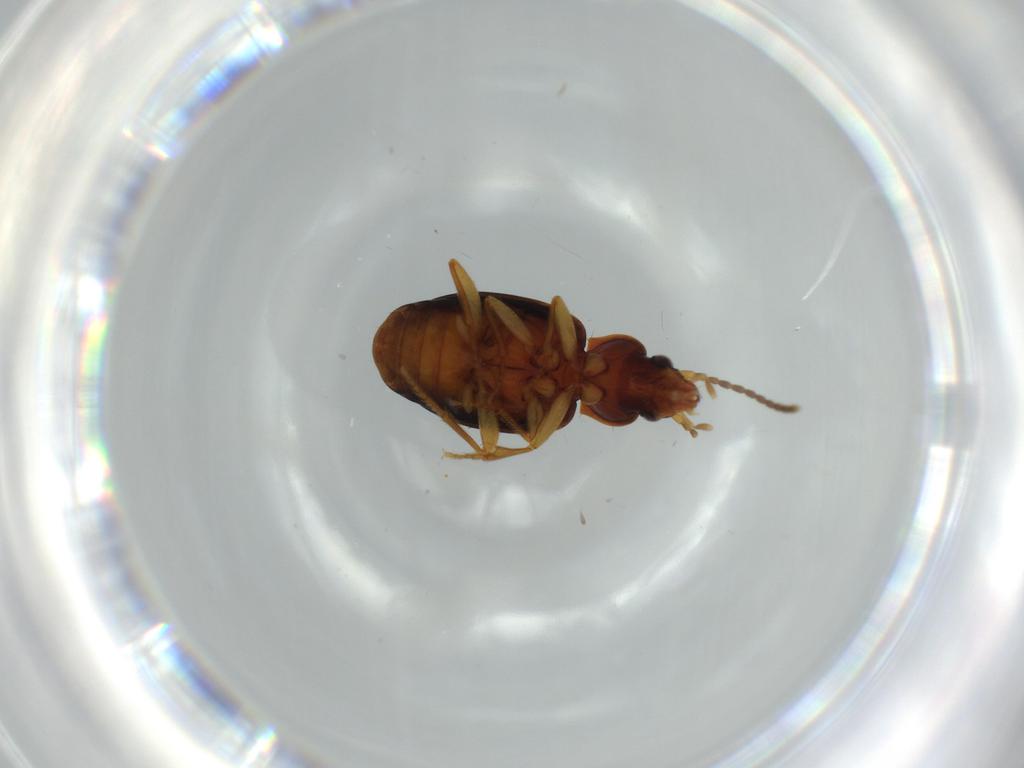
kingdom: Animalia
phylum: Arthropoda
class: Insecta
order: Coleoptera
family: Carabidae
